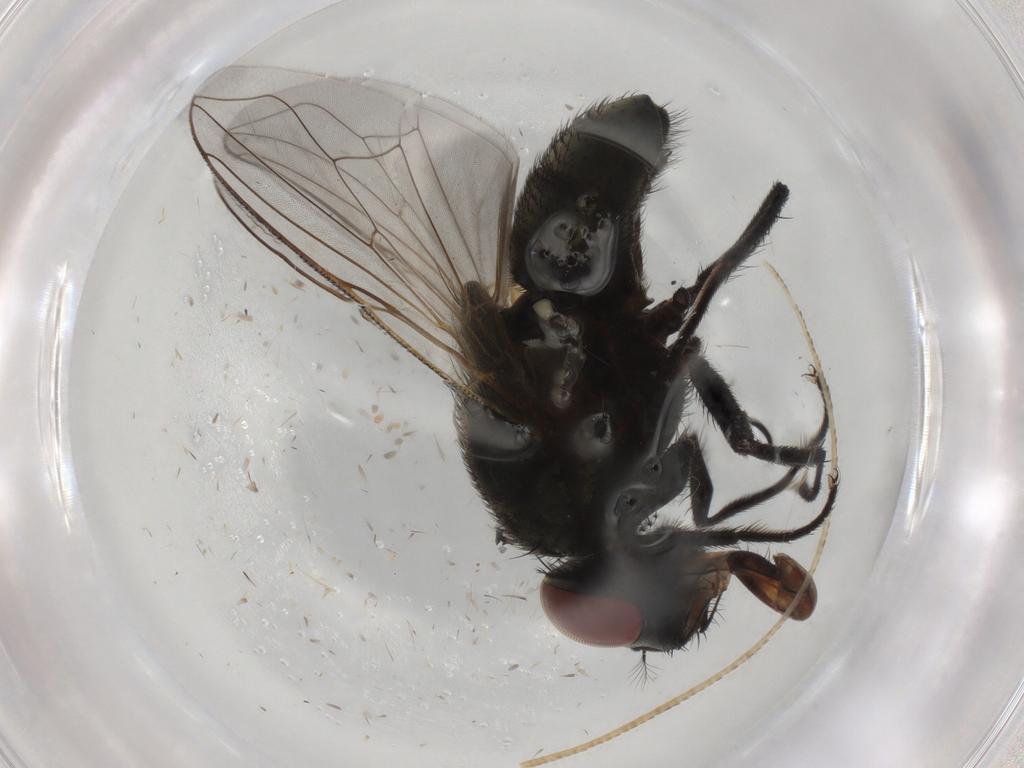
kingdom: Animalia
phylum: Arthropoda
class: Insecta
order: Diptera
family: Muscidae
